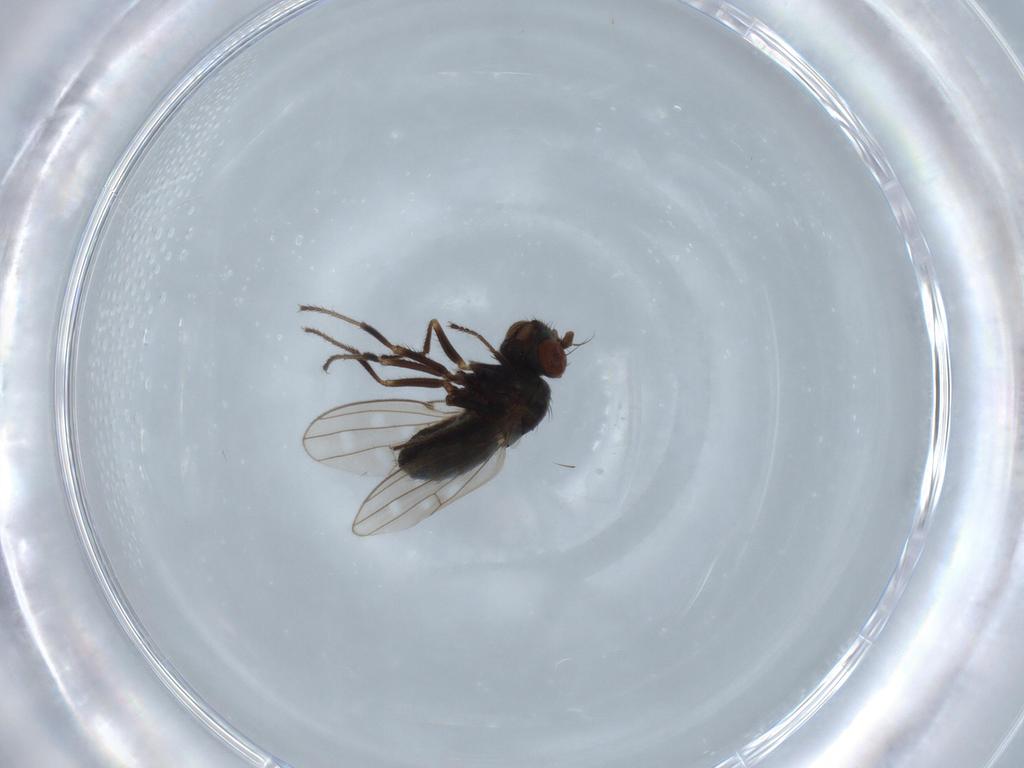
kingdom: Animalia
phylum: Arthropoda
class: Insecta
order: Diptera
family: Ephydridae
